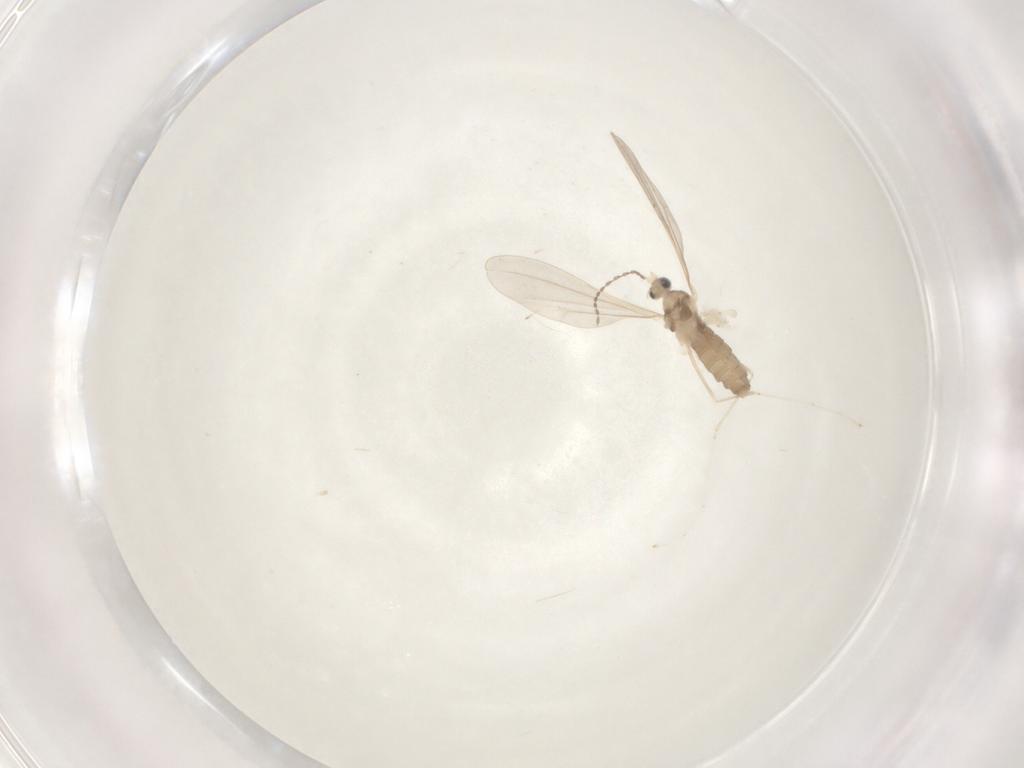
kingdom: Animalia
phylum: Arthropoda
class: Insecta
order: Diptera
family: Cecidomyiidae
